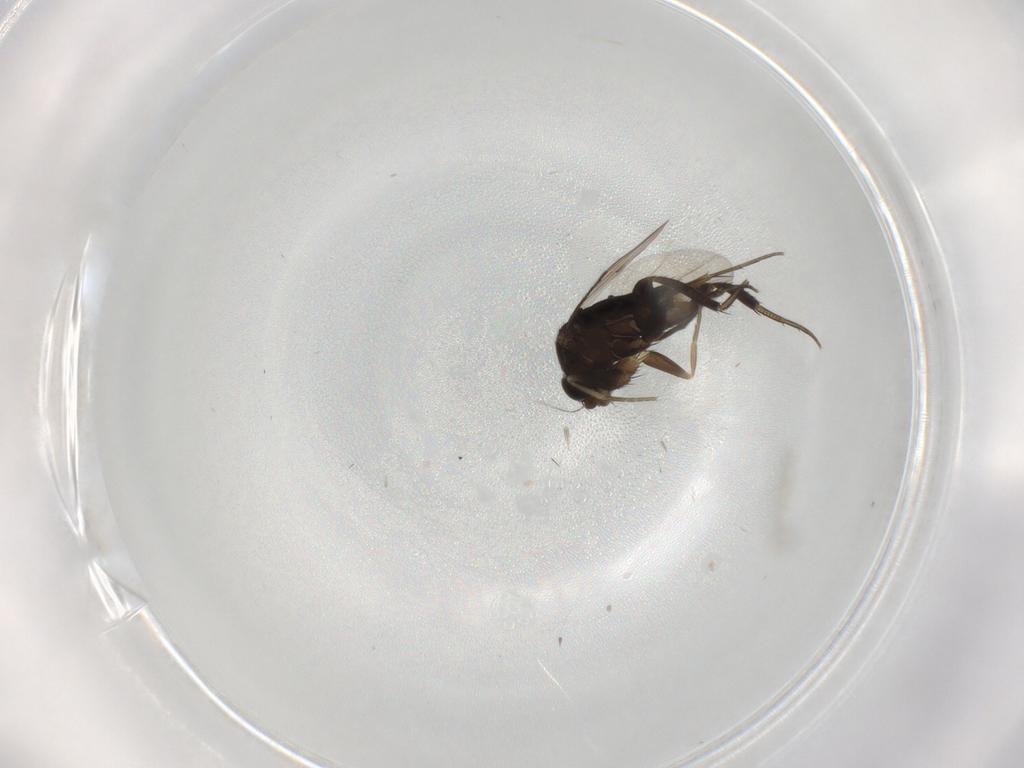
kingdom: Animalia
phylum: Arthropoda
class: Insecta
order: Diptera
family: Phoridae
